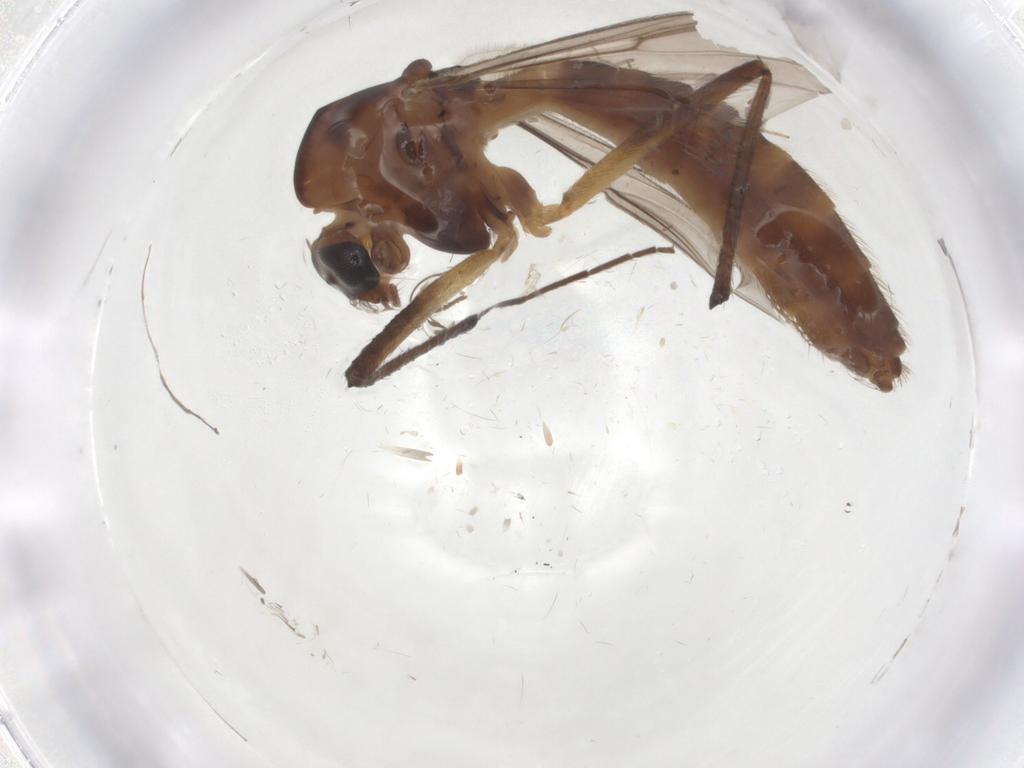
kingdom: Animalia
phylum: Arthropoda
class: Insecta
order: Diptera
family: Chironomidae
